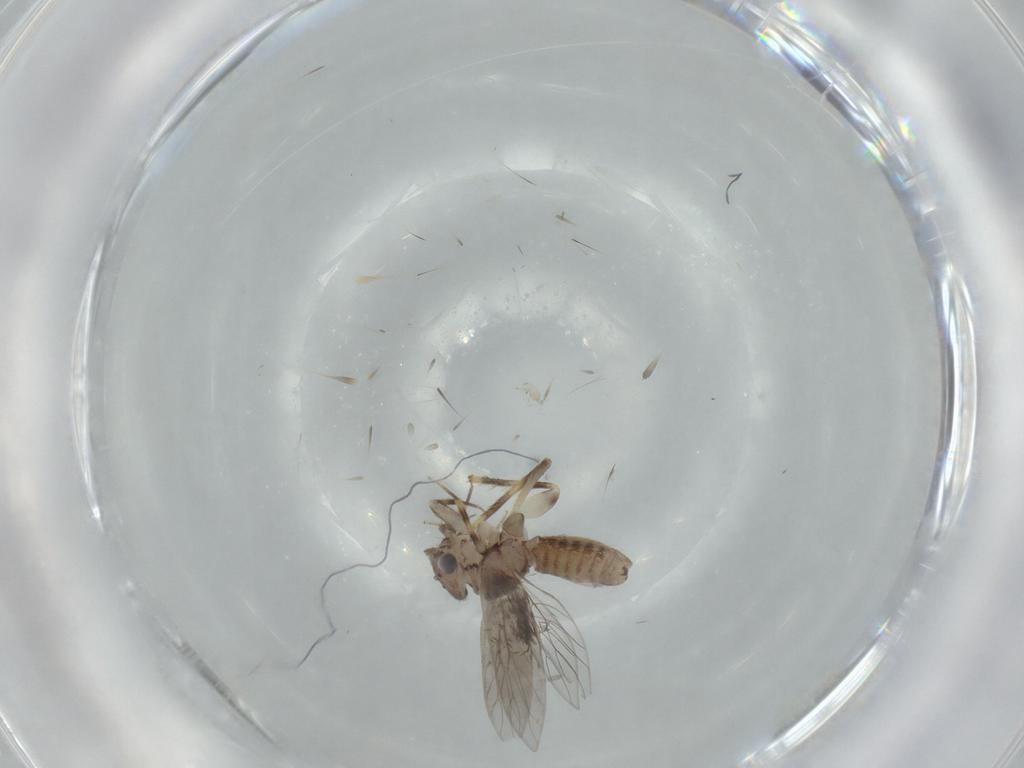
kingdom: Animalia
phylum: Arthropoda
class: Insecta
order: Psocodea
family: Lepidopsocidae
